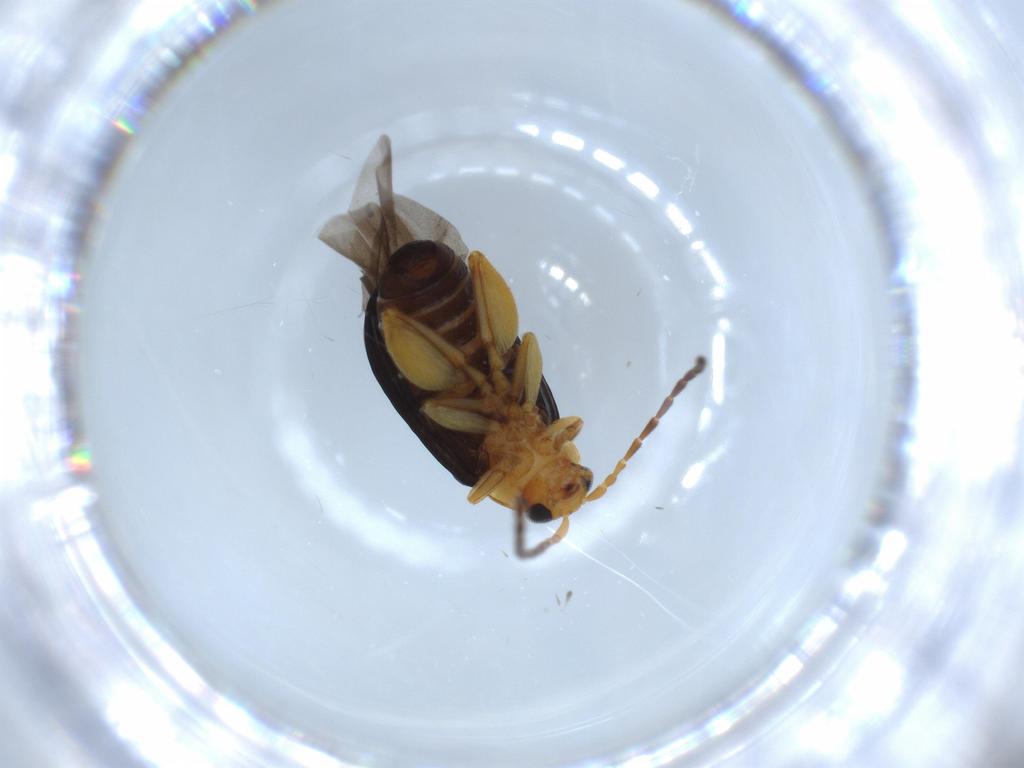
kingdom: Animalia
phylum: Arthropoda
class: Insecta
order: Coleoptera
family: Chrysomelidae
